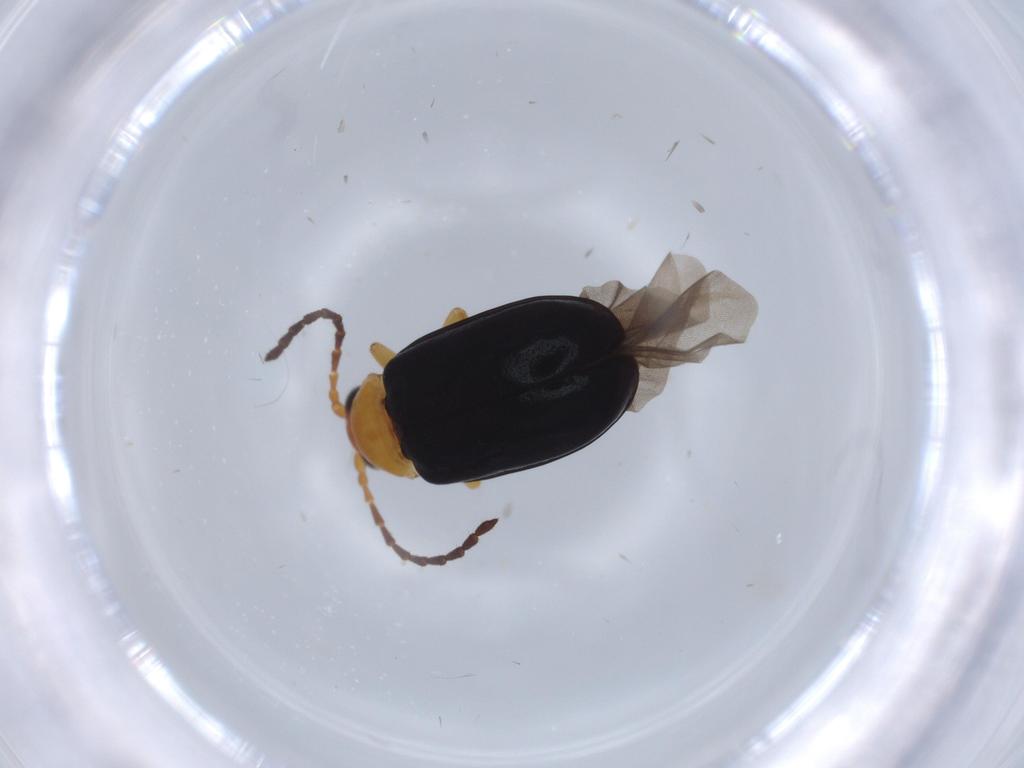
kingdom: Animalia
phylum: Arthropoda
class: Insecta
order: Coleoptera
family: Chrysomelidae
